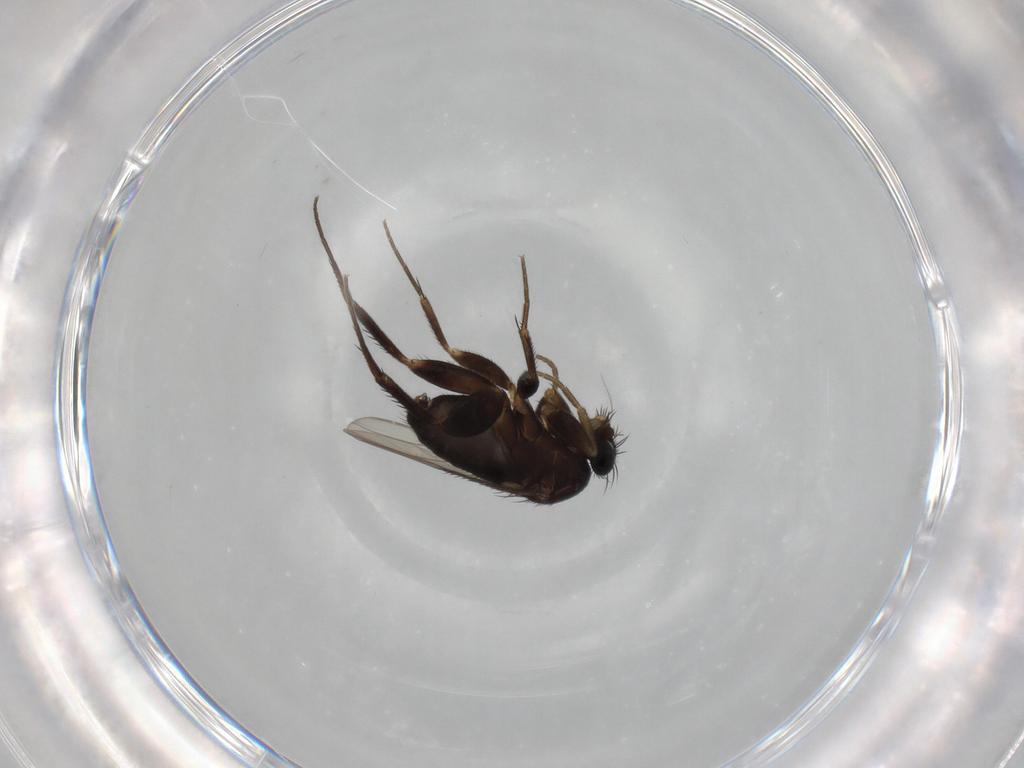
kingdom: Animalia
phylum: Arthropoda
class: Insecta
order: Diptera
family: Phoridae
